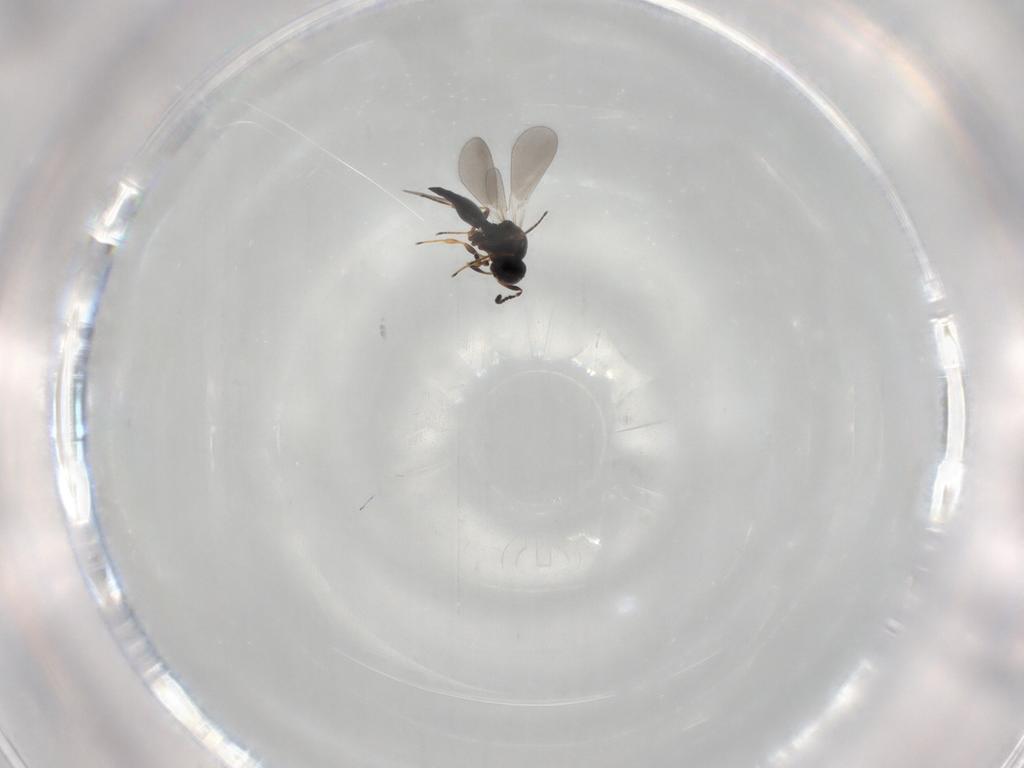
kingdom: Animalia
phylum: Arthropoda
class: Insecta
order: Hymenoptera
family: Platygastridae
